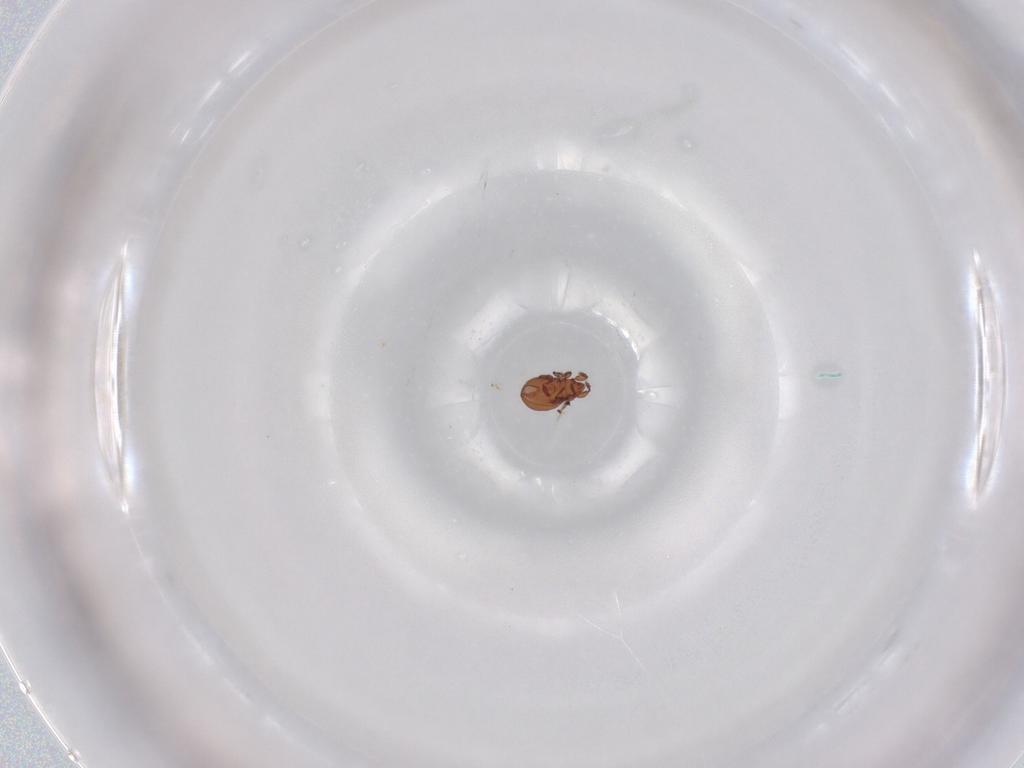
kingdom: Animalia
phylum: Arthropoda
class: Arachnida
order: Sarcoptiformes
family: Eremaeidae
